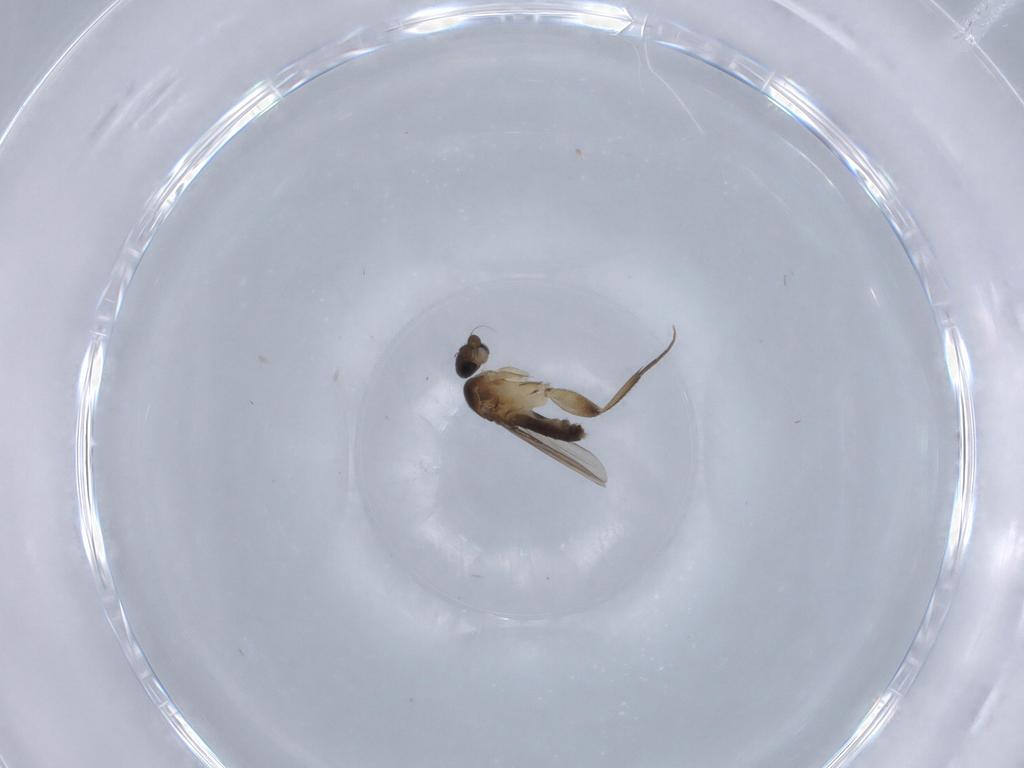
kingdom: Animalia
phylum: Arthropoda
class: Insecta
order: Diptera
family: Phoridae
